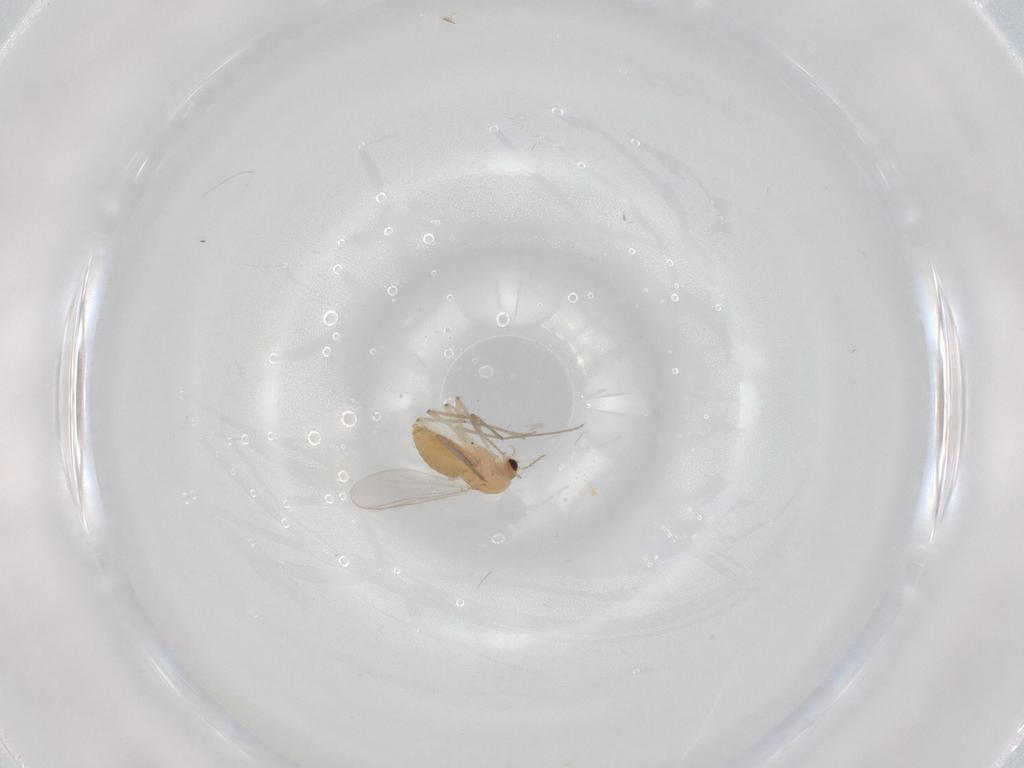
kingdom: Animalia
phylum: Arthropoda
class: Insecta
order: Diptera
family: Chironomidae
